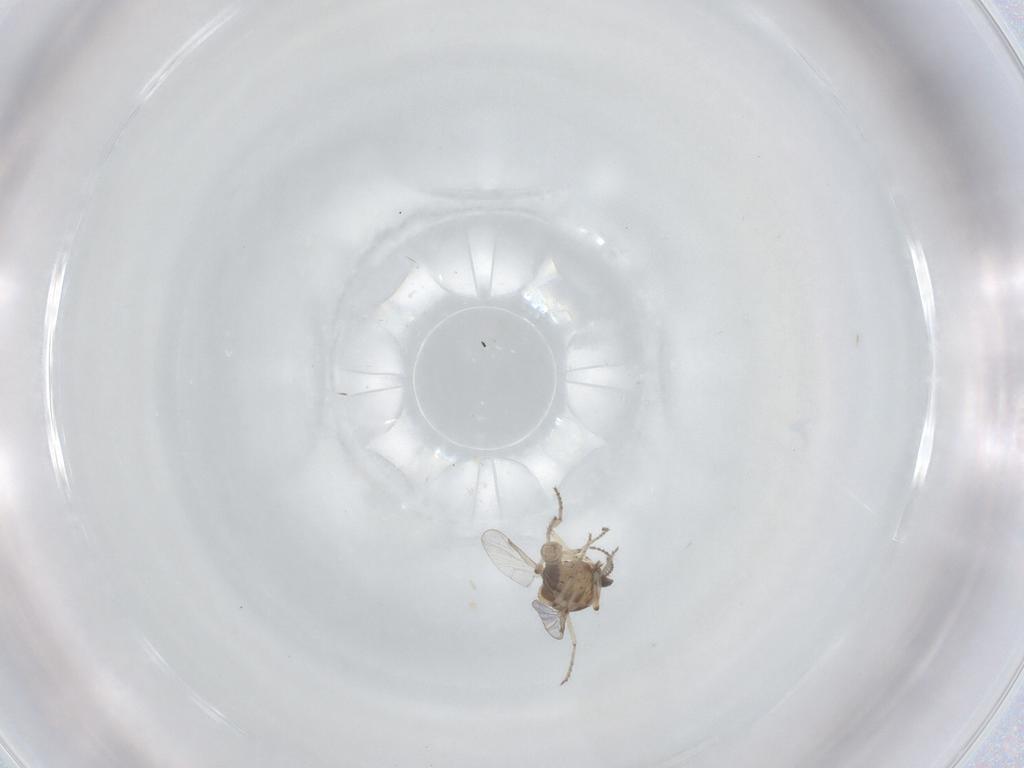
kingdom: Animalia
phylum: Arthropoda
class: Insecta
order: Diptera
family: Ceratopogonidae
